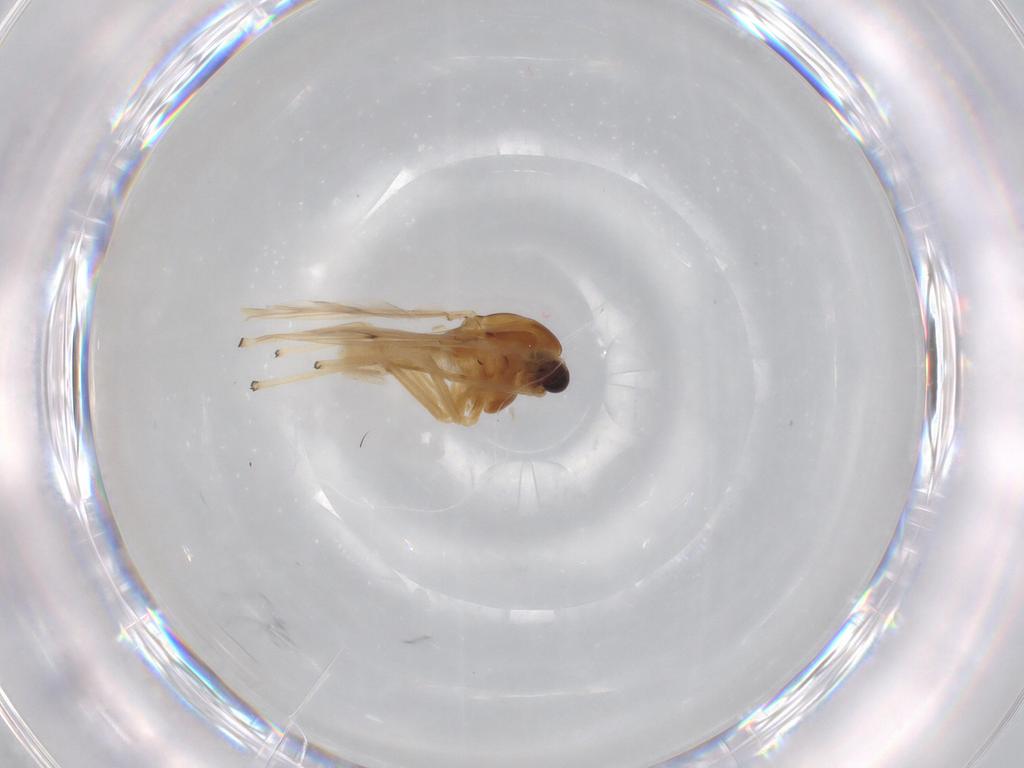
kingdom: Animalia
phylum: Arthropoda
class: Insecta
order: Diptera
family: Chironomidae
